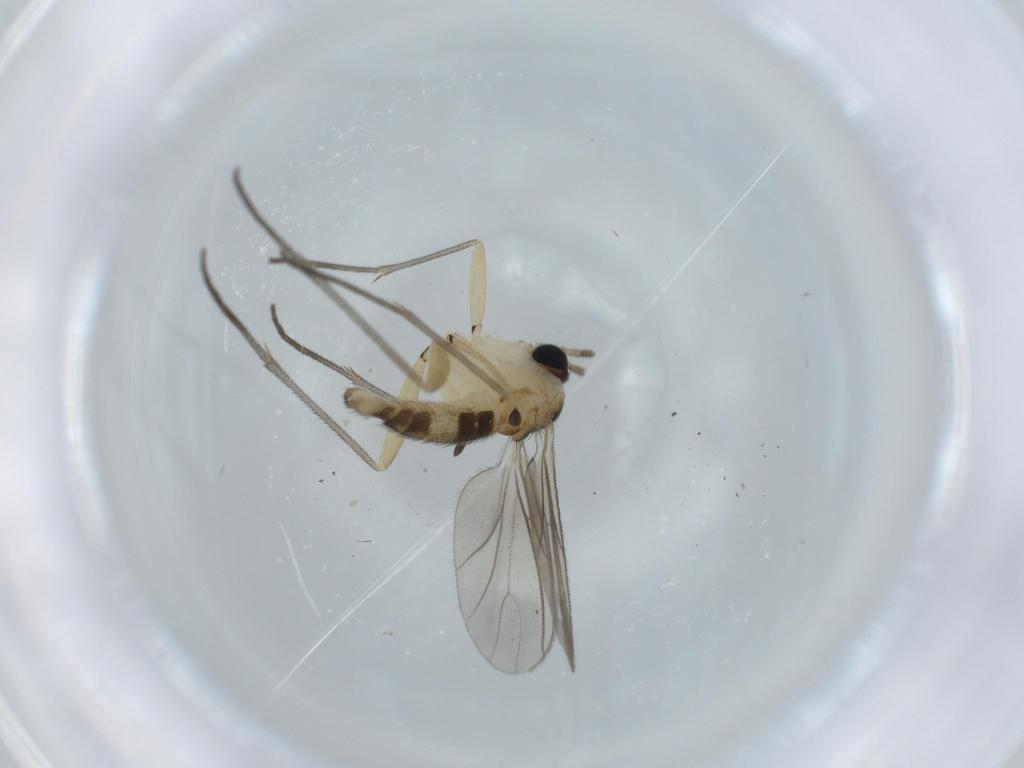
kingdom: Animalia
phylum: Arthropoda
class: Insecta
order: Diptera
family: Sciaridae
